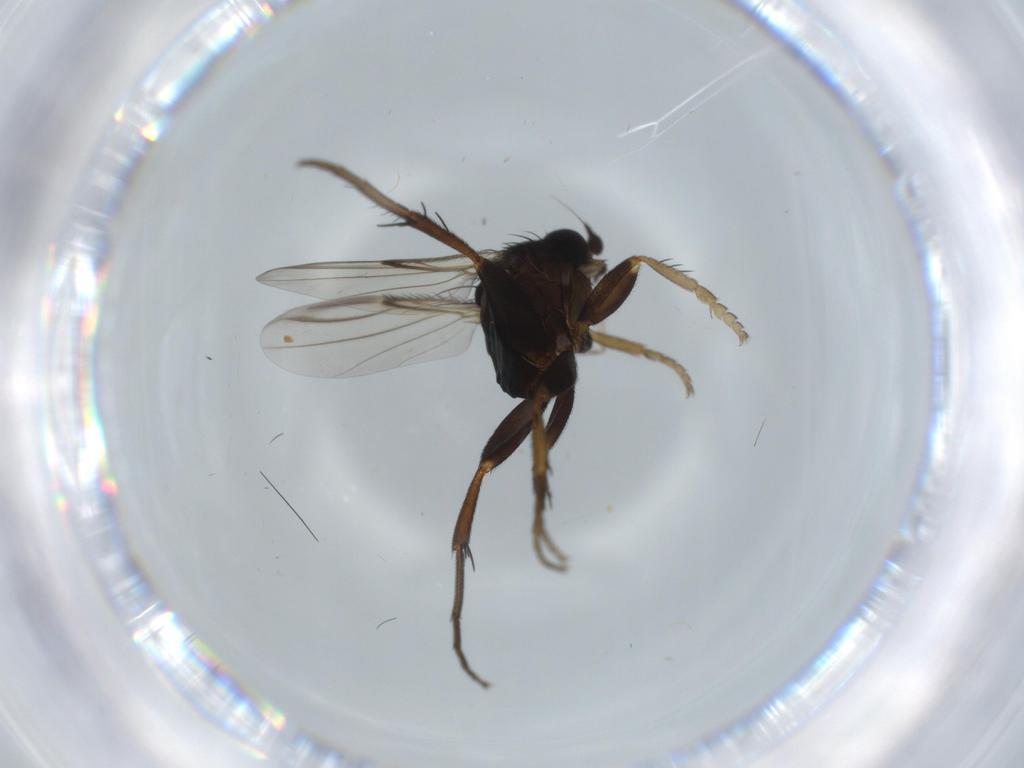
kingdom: Animalia
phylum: Arthropoda
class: Insecta
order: Diptera
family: Phoridae
